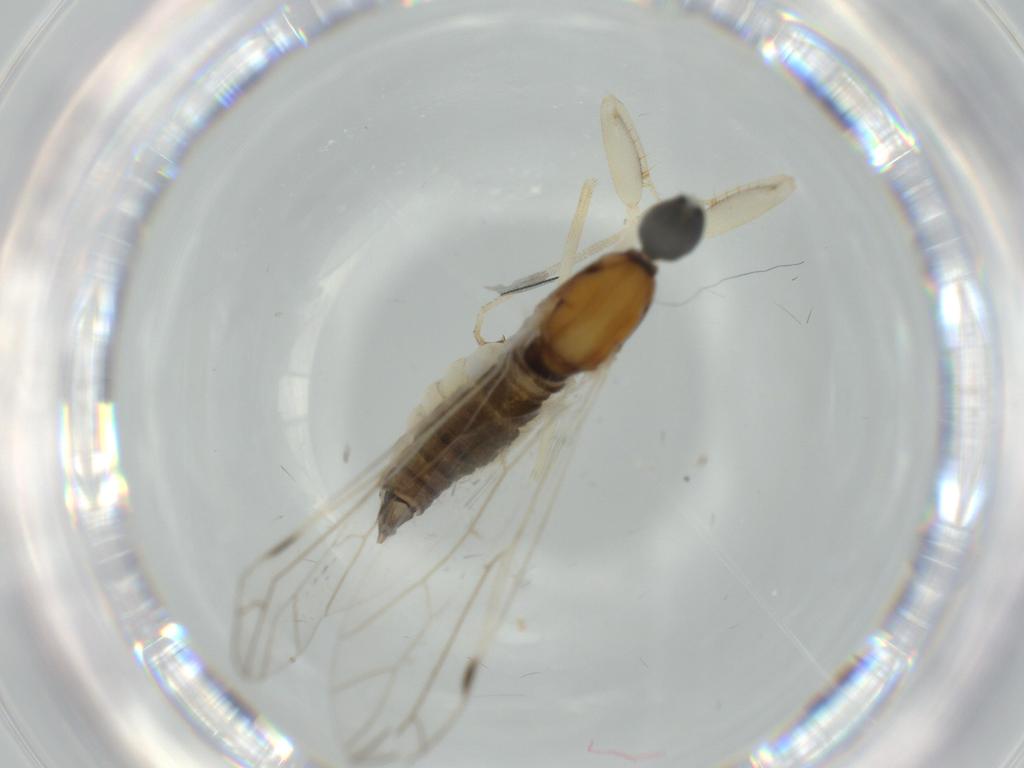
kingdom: Animalia
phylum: Arthropoda
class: Insecta
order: Diptera
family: Empididae
